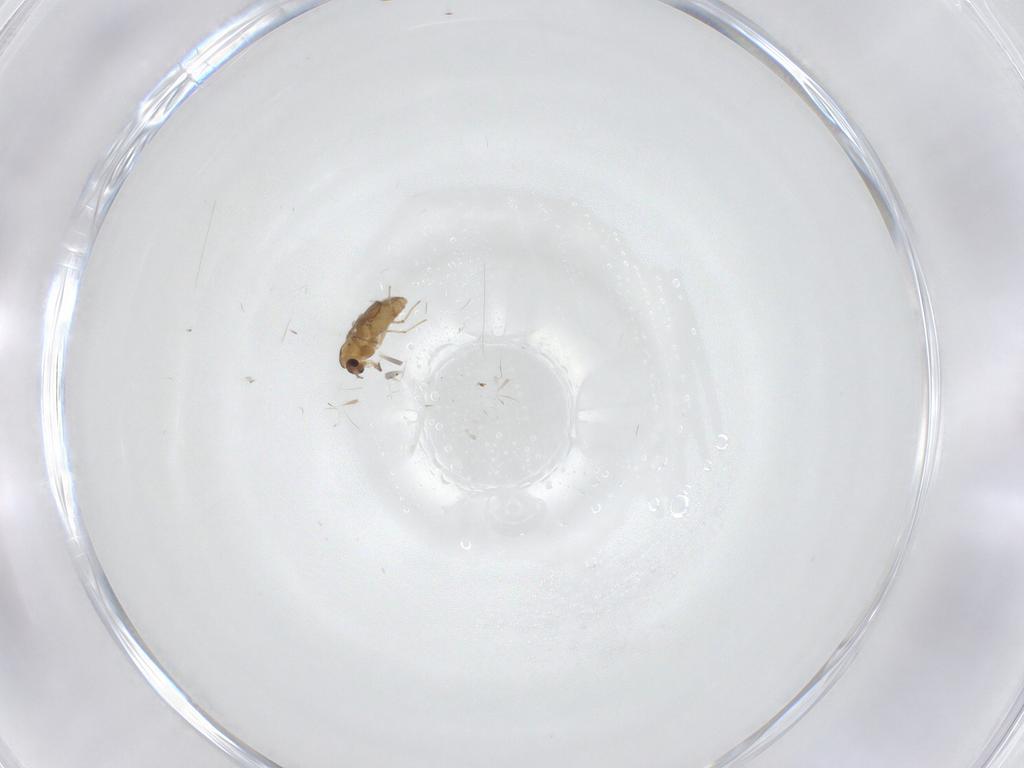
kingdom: Animalia
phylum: Arthropoda
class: Insecta
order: Diptera
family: Chironomidae
